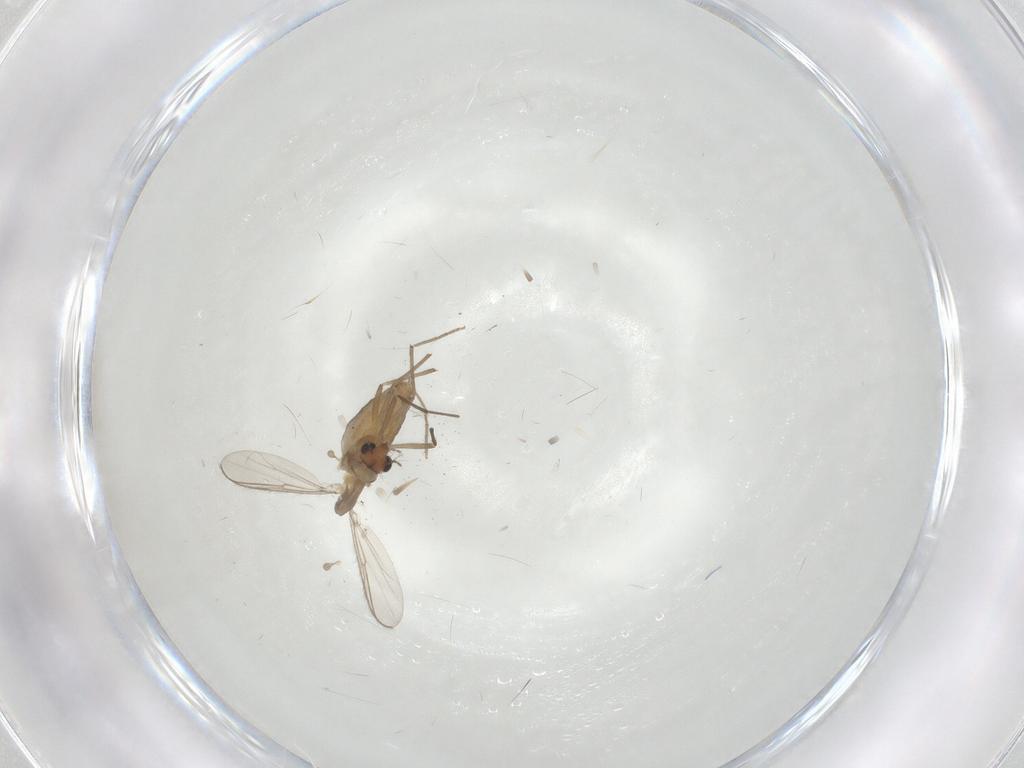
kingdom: Animalia
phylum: Arthropoda
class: Insecta
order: Diptera
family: Chironomidae
